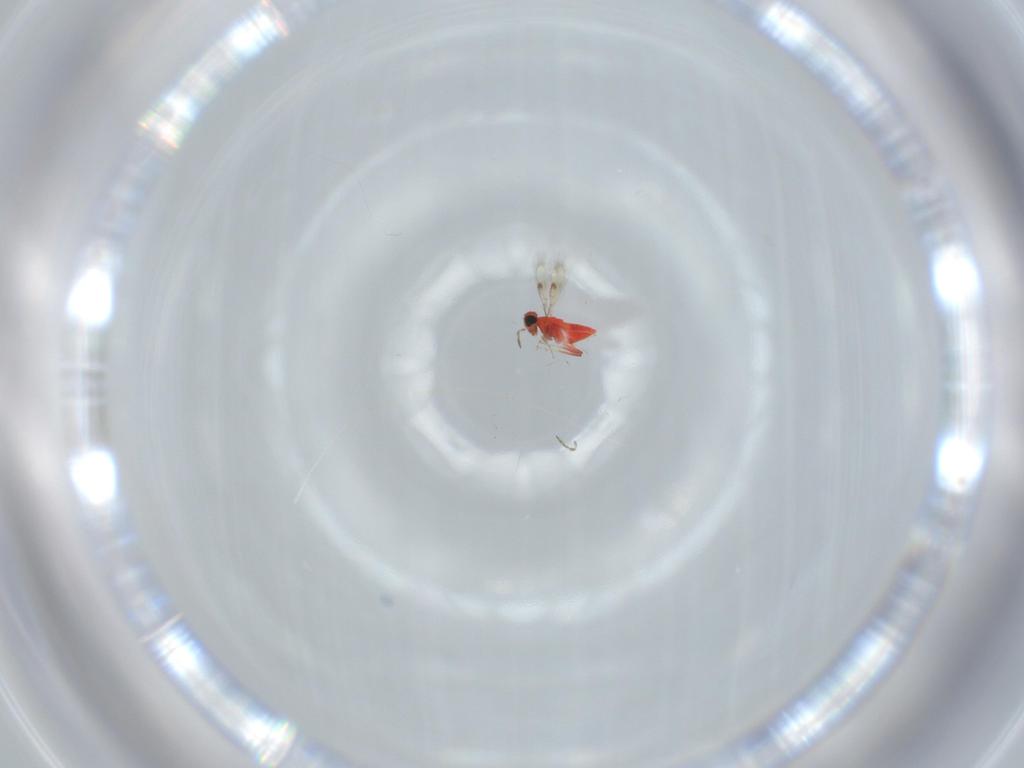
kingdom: Animalia
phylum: Arthropoda
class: Insecta
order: Hymenoptera
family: Trichogrammatidae
